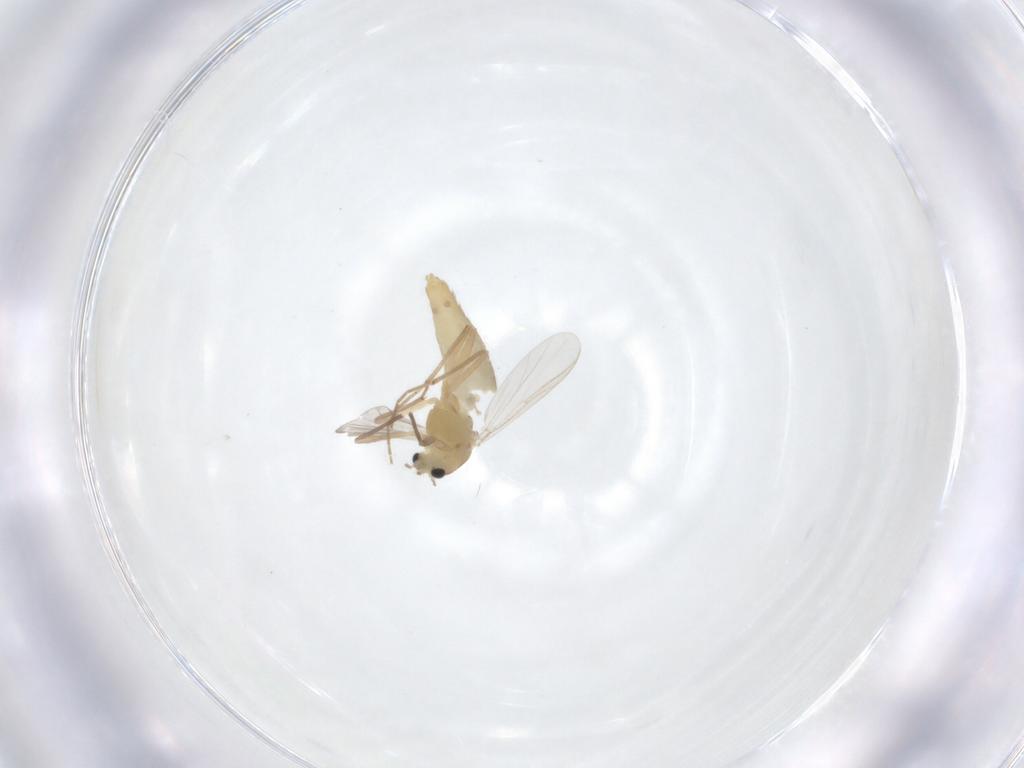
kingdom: Animalia
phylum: Arthropoda
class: Insecta
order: Diptera
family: Chironomidae
